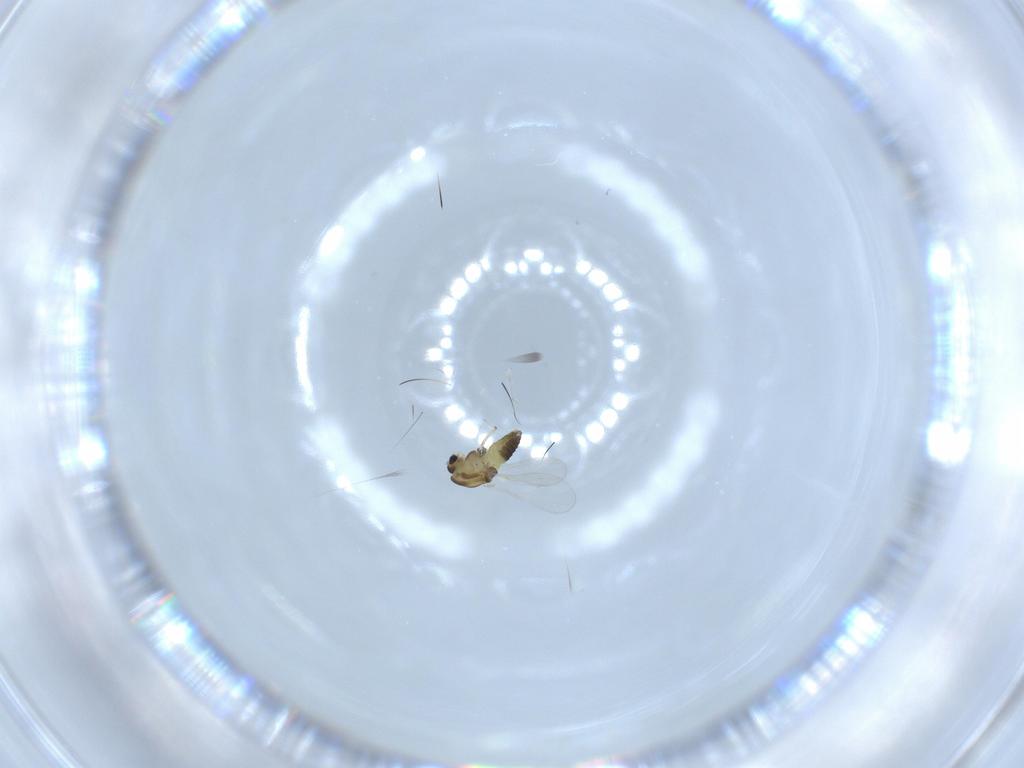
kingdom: Animalia
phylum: Arthropoda
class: Insecta
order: Diptera
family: Chironomidae
